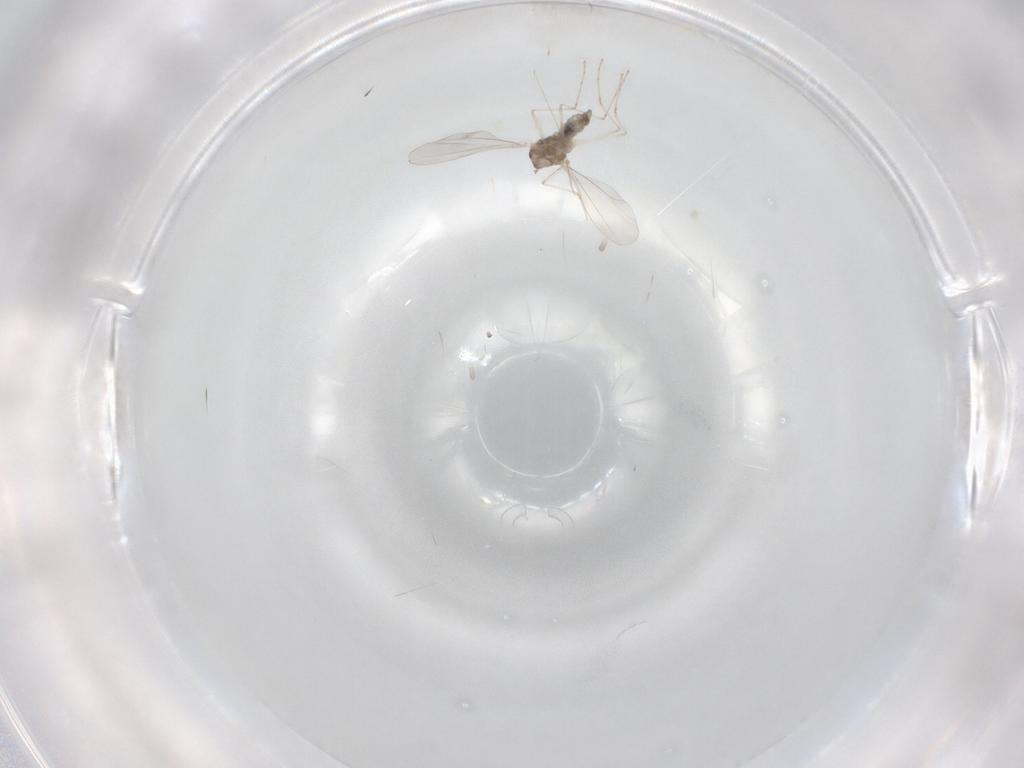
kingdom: Animalia
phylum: Arthropoda
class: Insecta
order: Diptera
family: Cecidomyiidae
